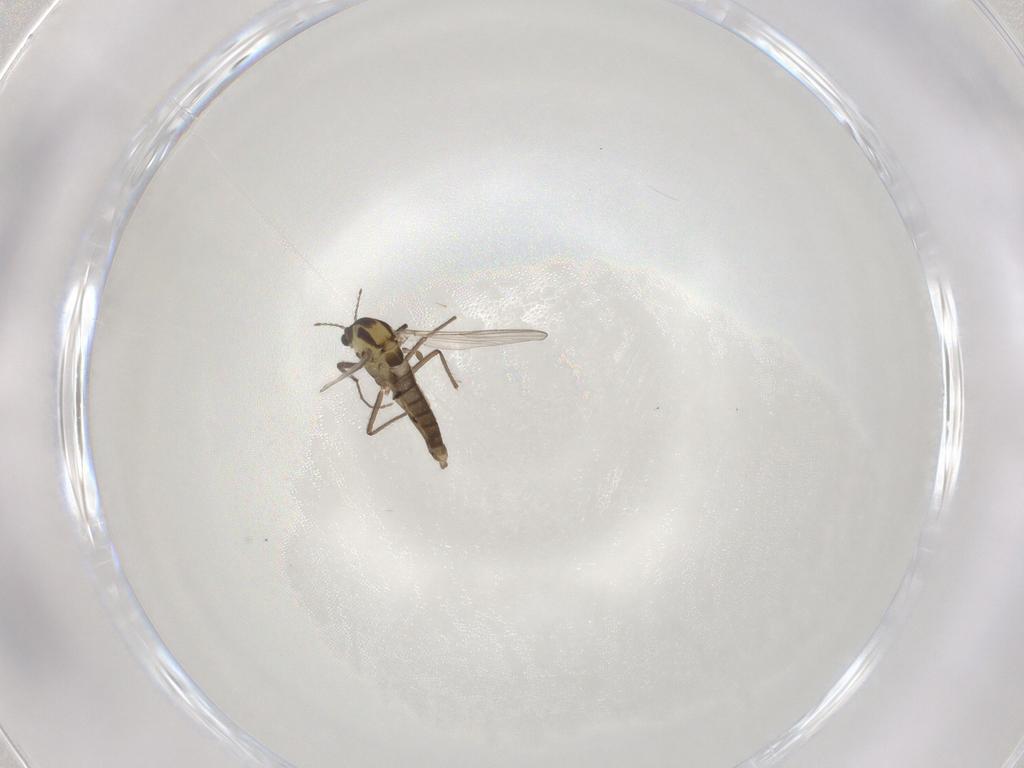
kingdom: Animalia
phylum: Arthropoda
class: Insecta
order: Diptera
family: Chironomidae
